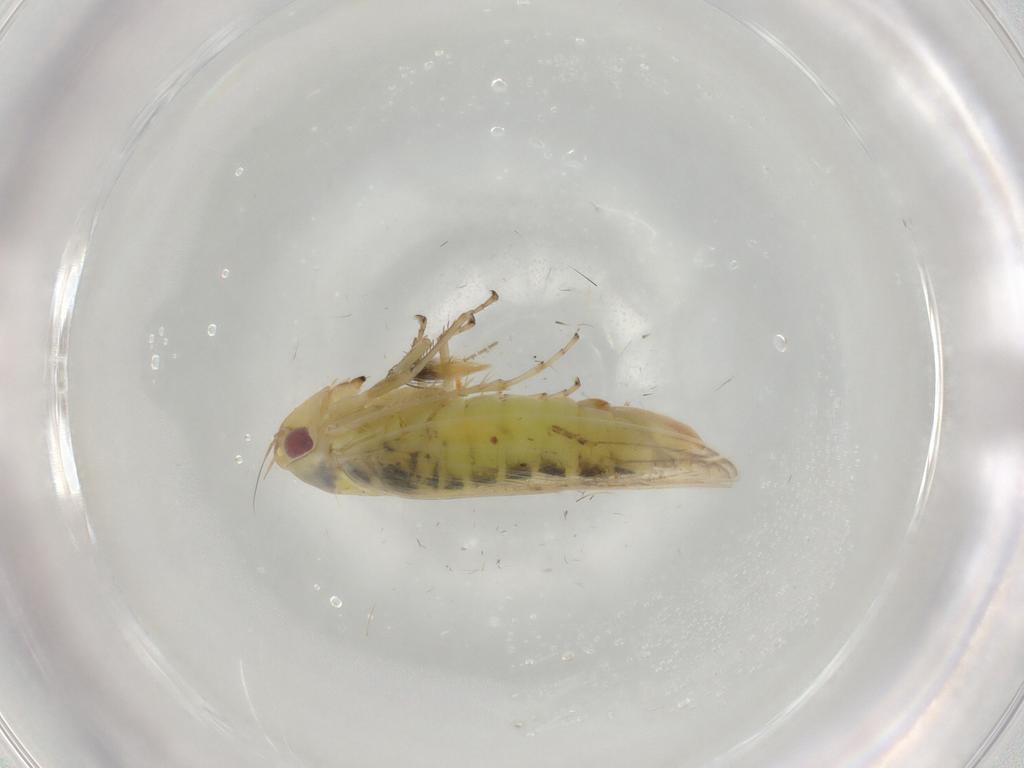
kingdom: Animalia
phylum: Arthropoda
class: Insecta
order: Hemiptera
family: Cicadellidae
